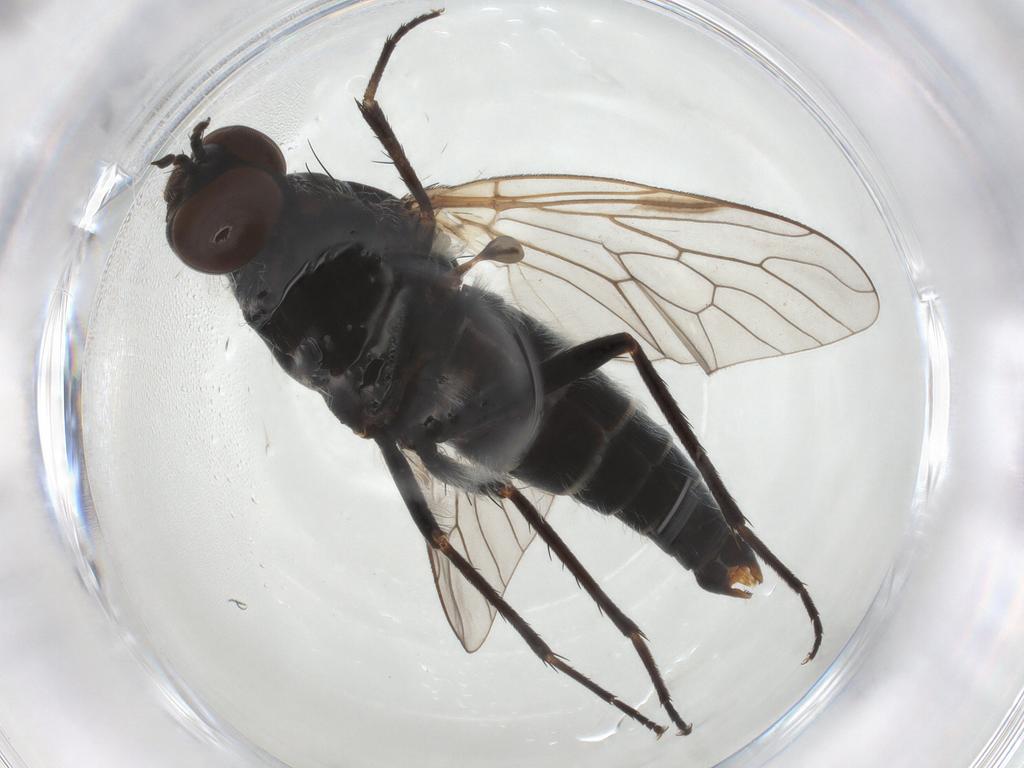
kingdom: Animalia
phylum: Arthropoda
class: Insecta
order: Diptera
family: Therevidae
